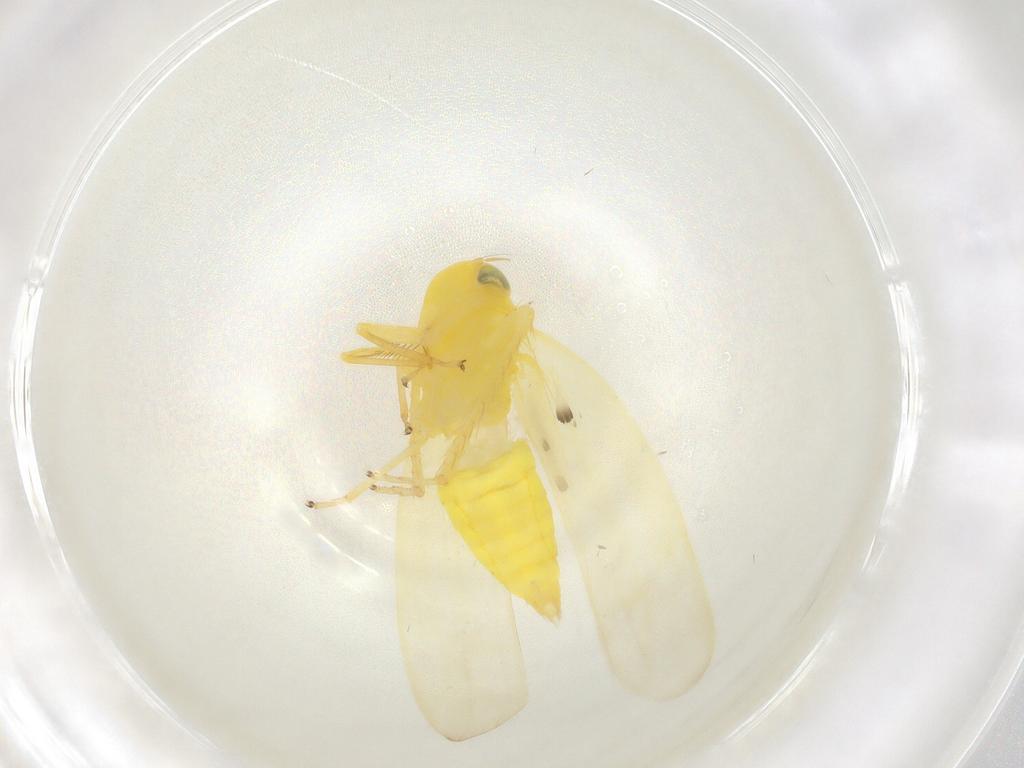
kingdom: Animalia
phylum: Arthropoda
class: Insecta
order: Hemiptera
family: Cicadellidae
